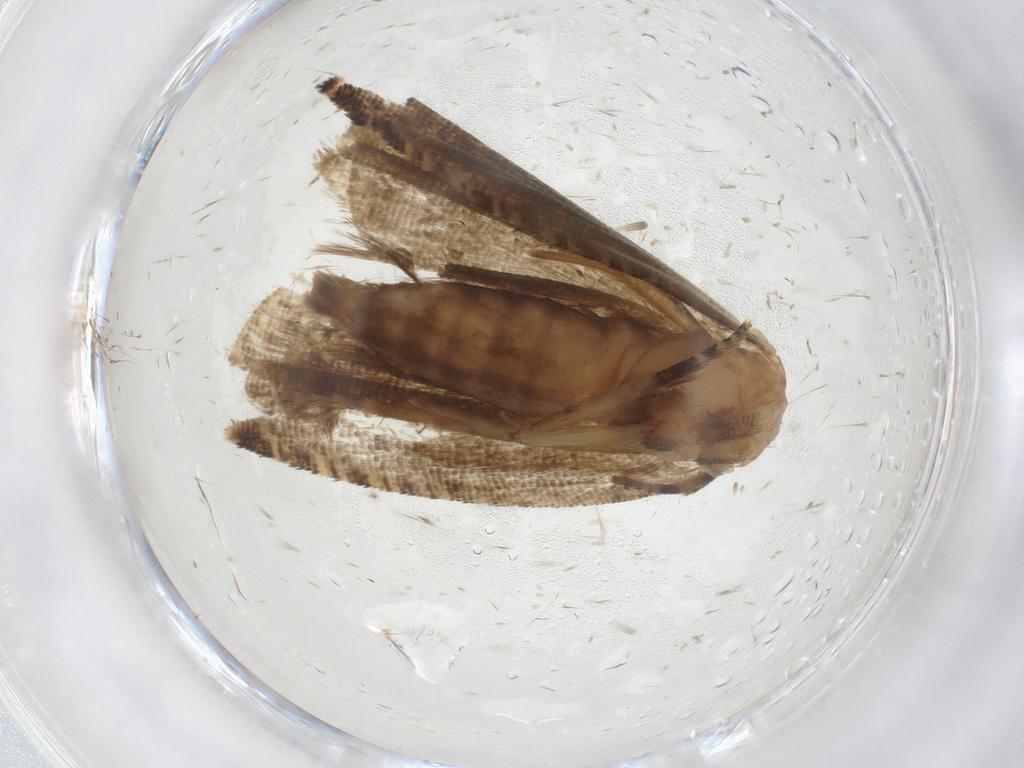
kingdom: Animalia
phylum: Arthropoda
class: Insecta
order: Lepidoptera
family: Tortricidae
